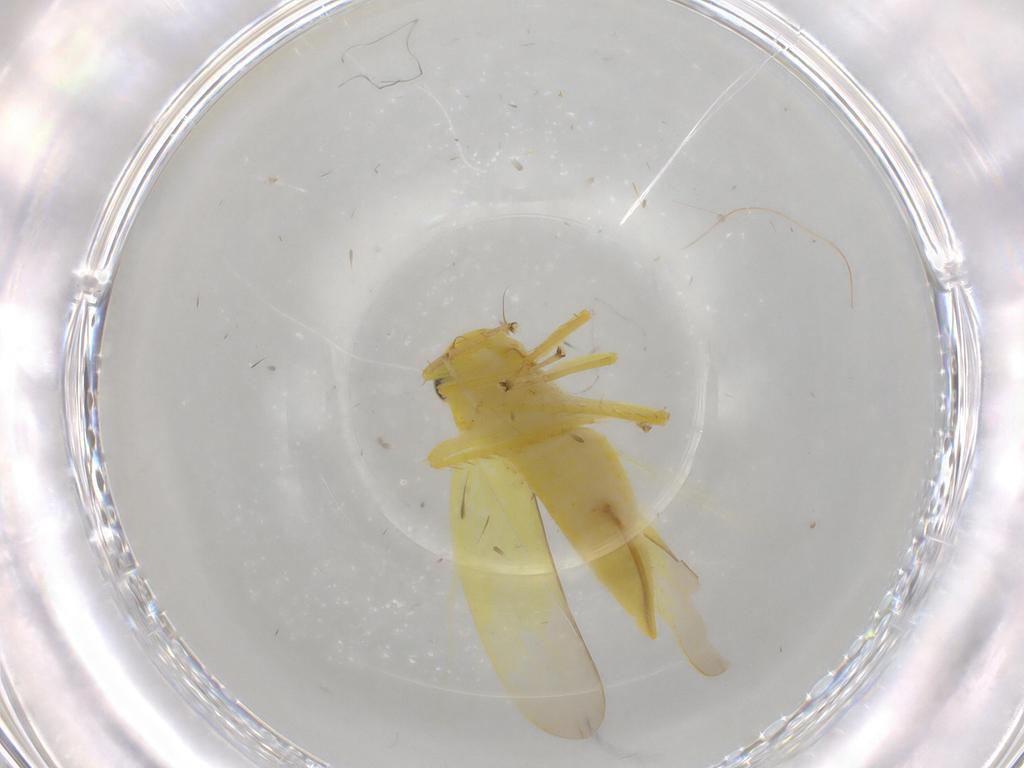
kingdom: Animalia
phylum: Arthropoda
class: Insecta
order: Hemiptera
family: Cicadellidae
